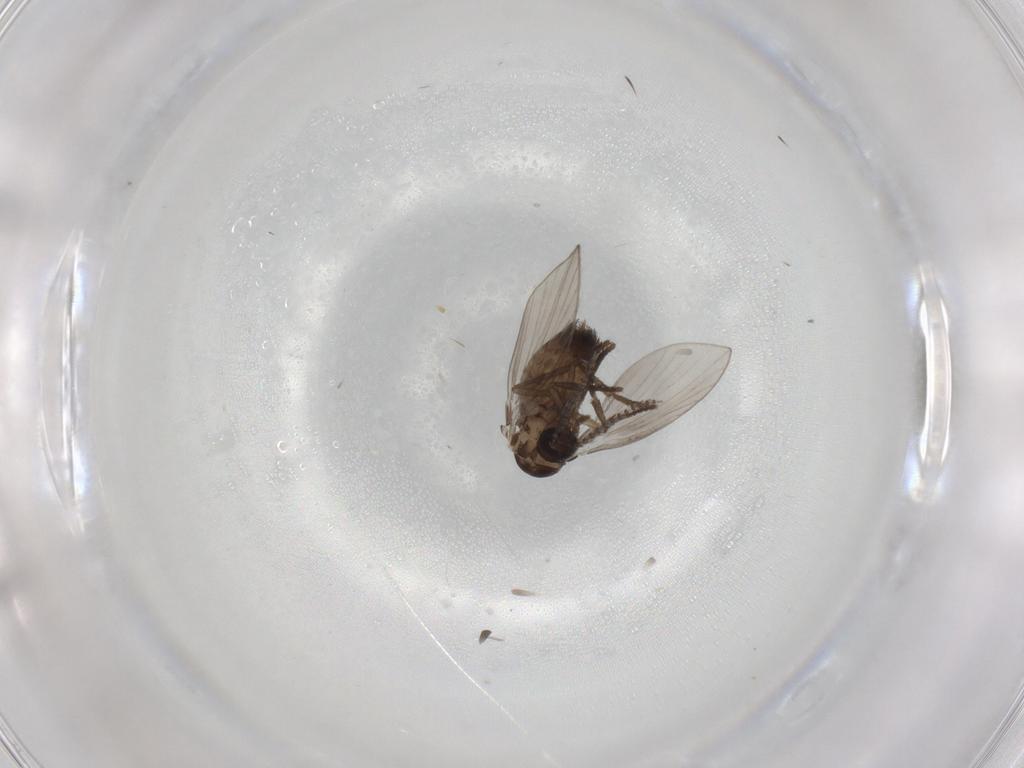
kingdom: Animalia
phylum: Arthropoda
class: Insecta
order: Diptera
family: Psychodidae
